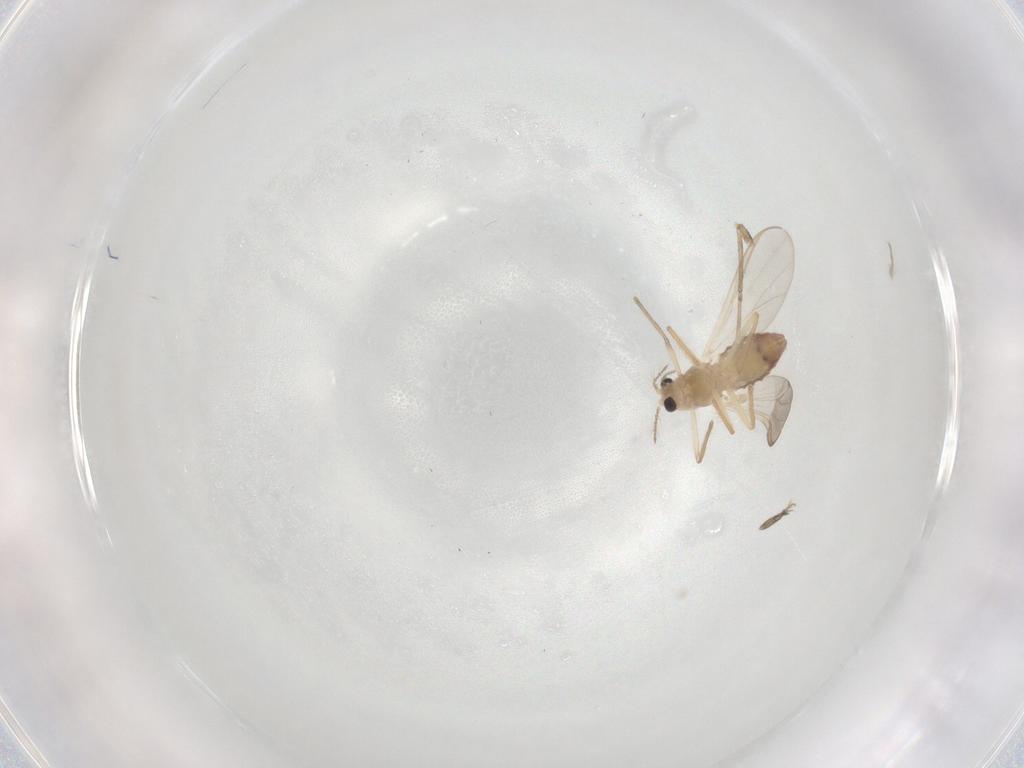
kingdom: Animalia
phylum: Arthropoda
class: Insecta
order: Diptera
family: Chironomidae
